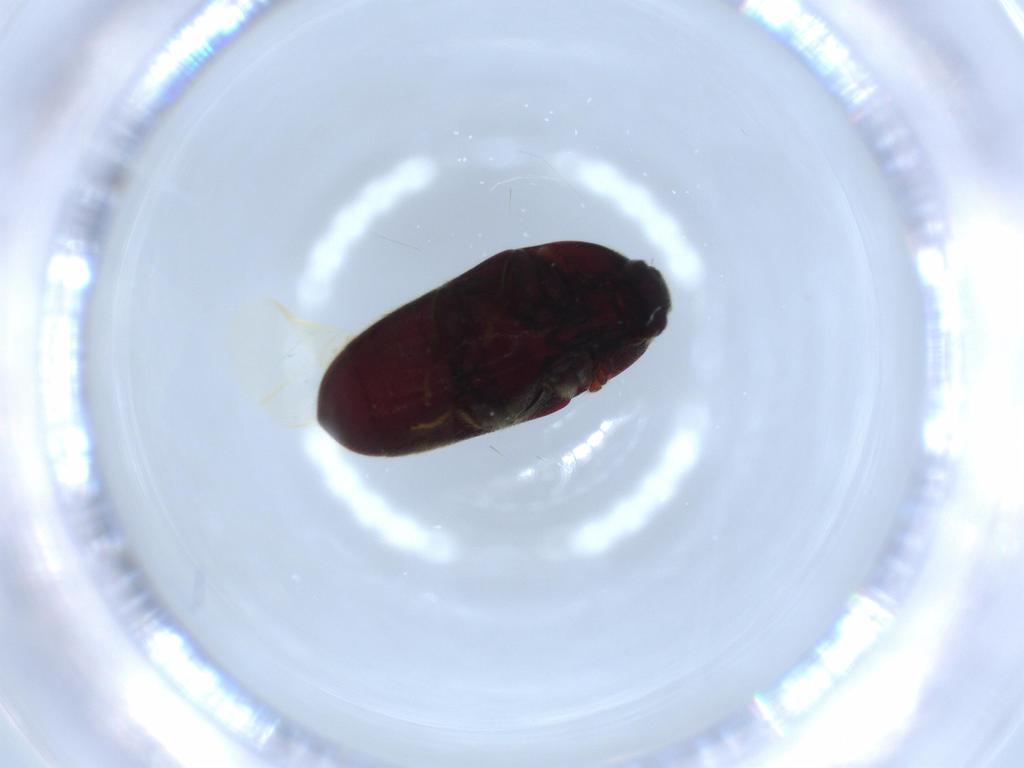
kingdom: Animalia
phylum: Arthropoda
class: Insecta
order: Coleoptera
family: Throscidae
